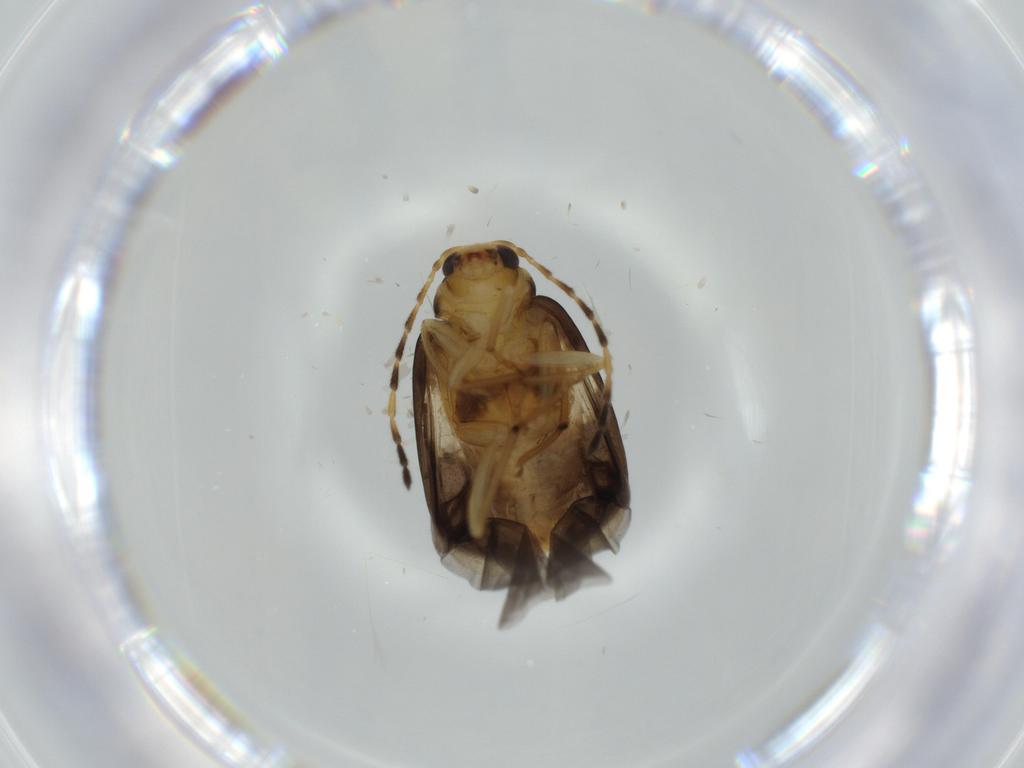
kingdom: Animalia
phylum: Arthropoda
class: Insecta
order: Coleoptera
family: Chrysomelidae
